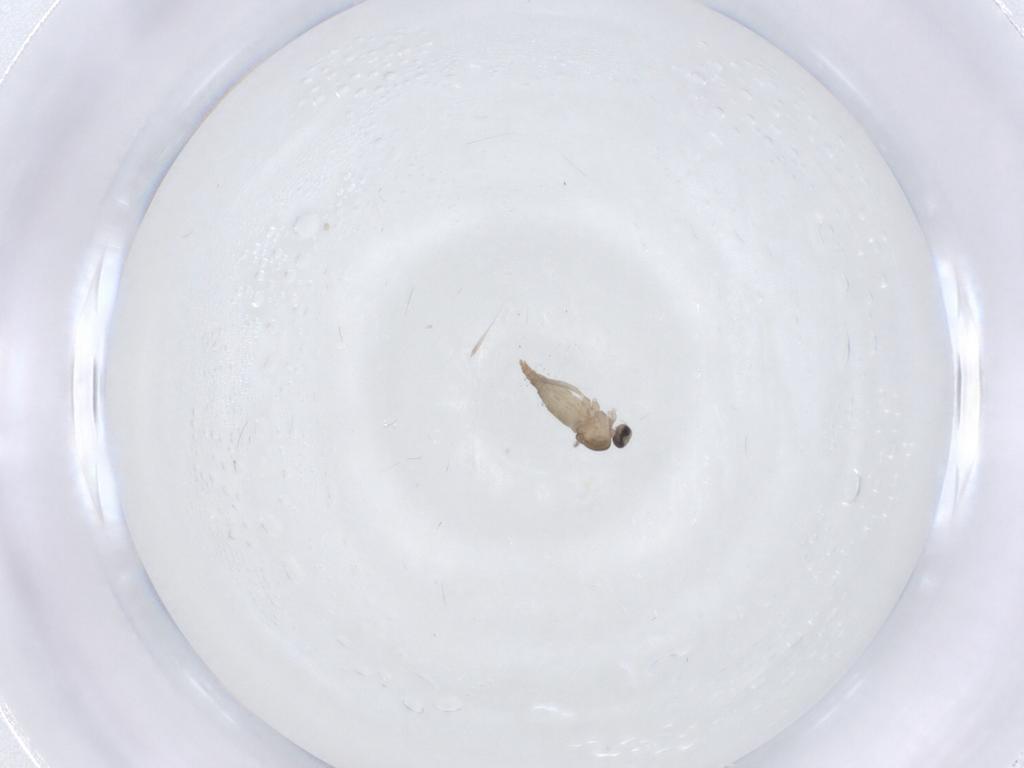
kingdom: Animalia
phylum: Arthropoda
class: Insecta
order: Diptera
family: Cecidomyiidae
